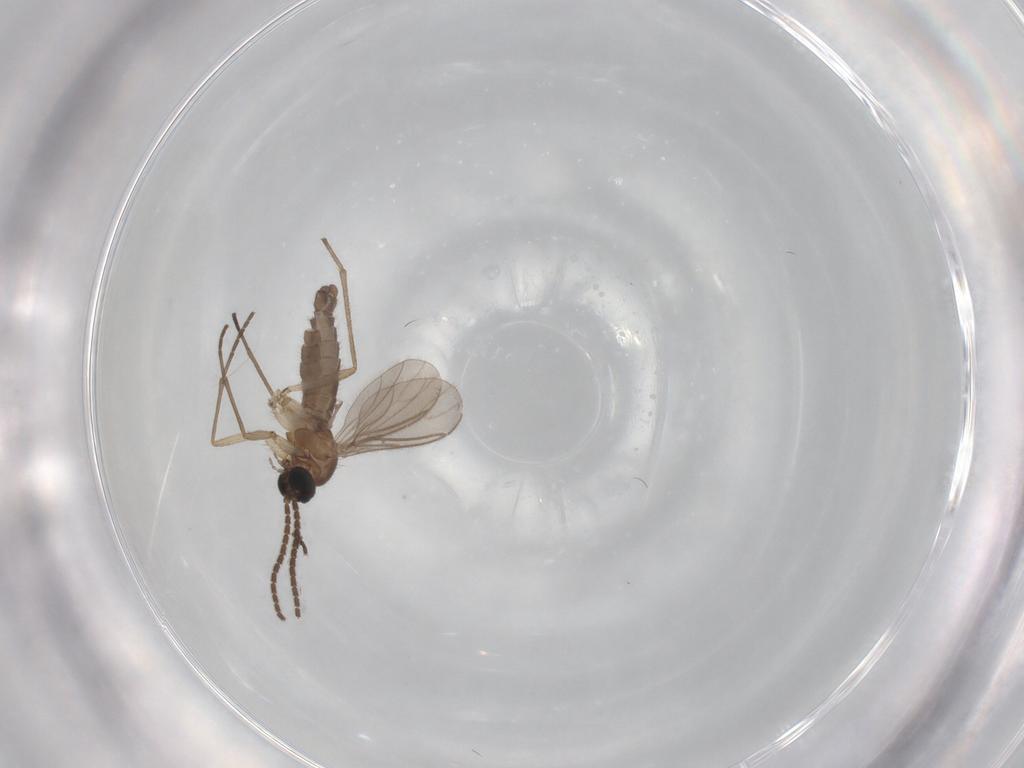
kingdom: Animalia
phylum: Arthropoda
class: Insecta
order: Diptera
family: Sciaridae
